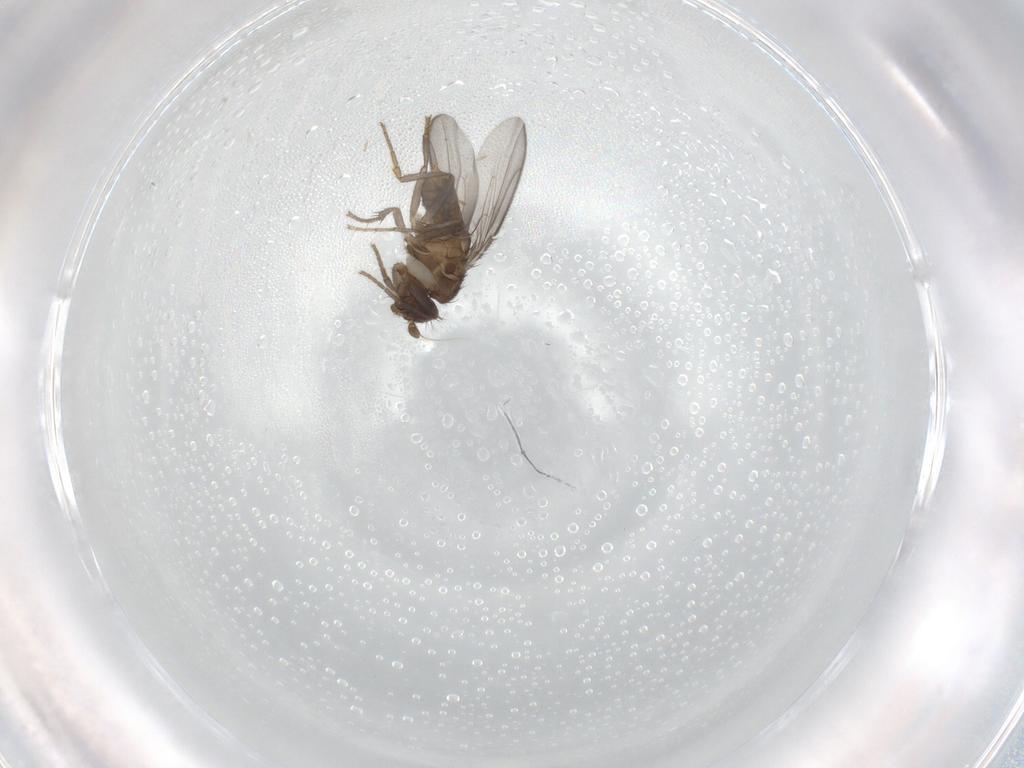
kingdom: Animalia
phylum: Arthropoda
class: Insecta
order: Diptera
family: Sphaeroceridae
